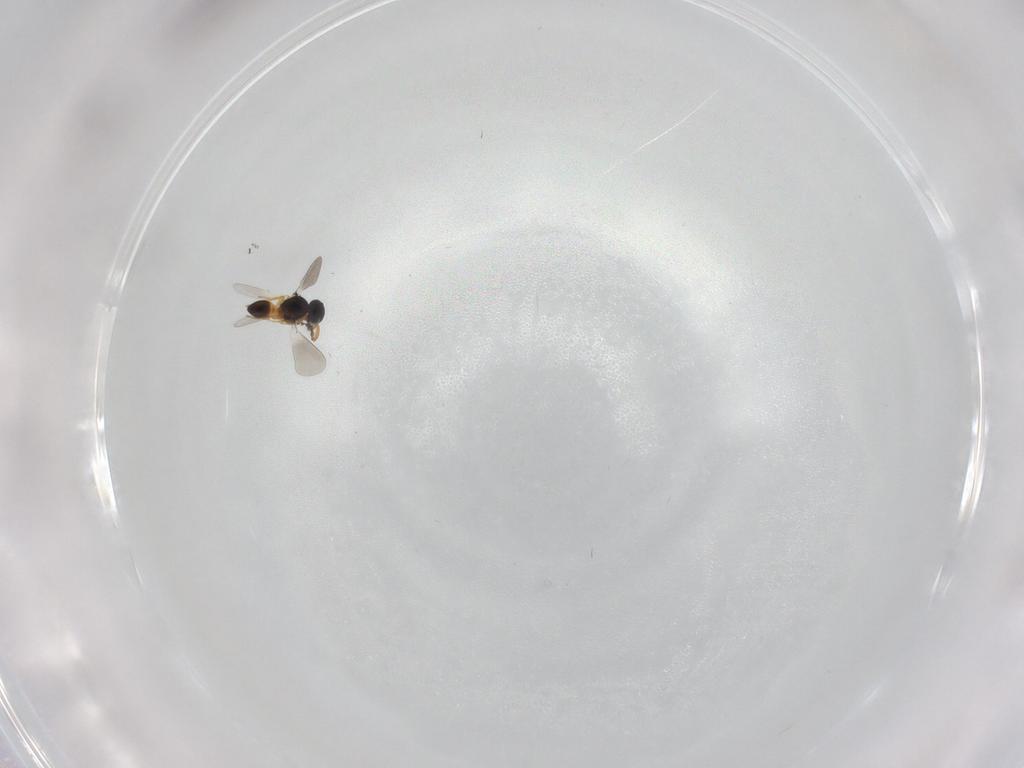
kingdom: Animalia
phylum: Arthropoda
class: Insecta
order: Hymenoptera
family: Platygastridae
